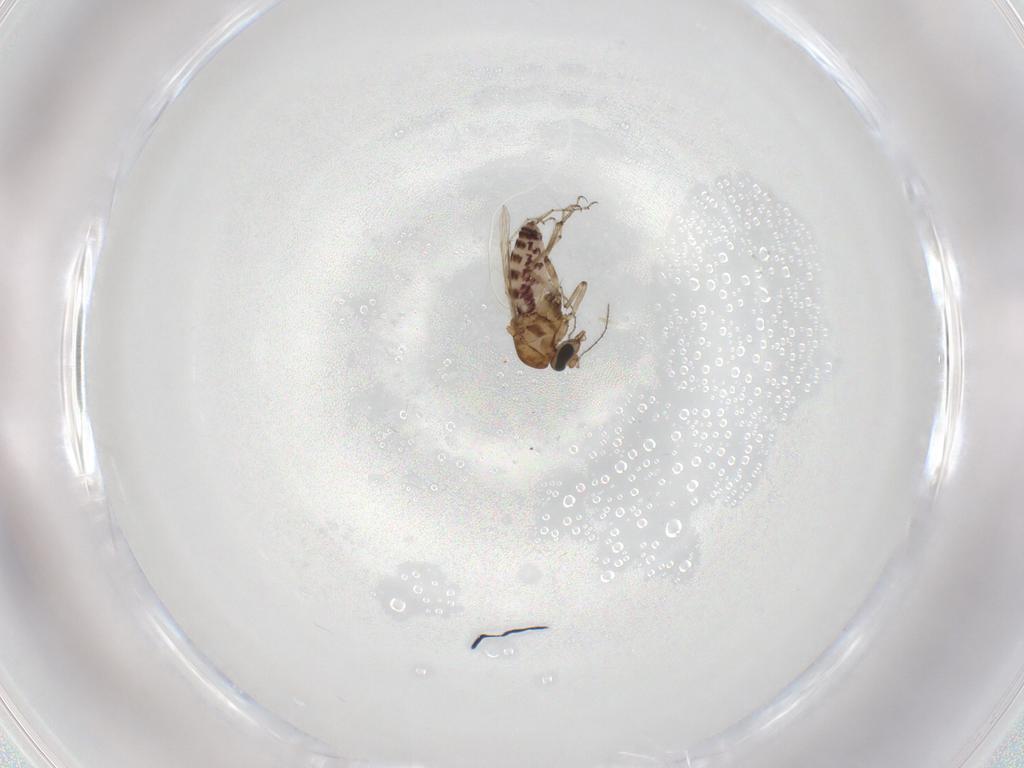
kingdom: Animalia
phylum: Arthropoda
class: Insecta
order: Diptera
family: Ceratopogonidae
